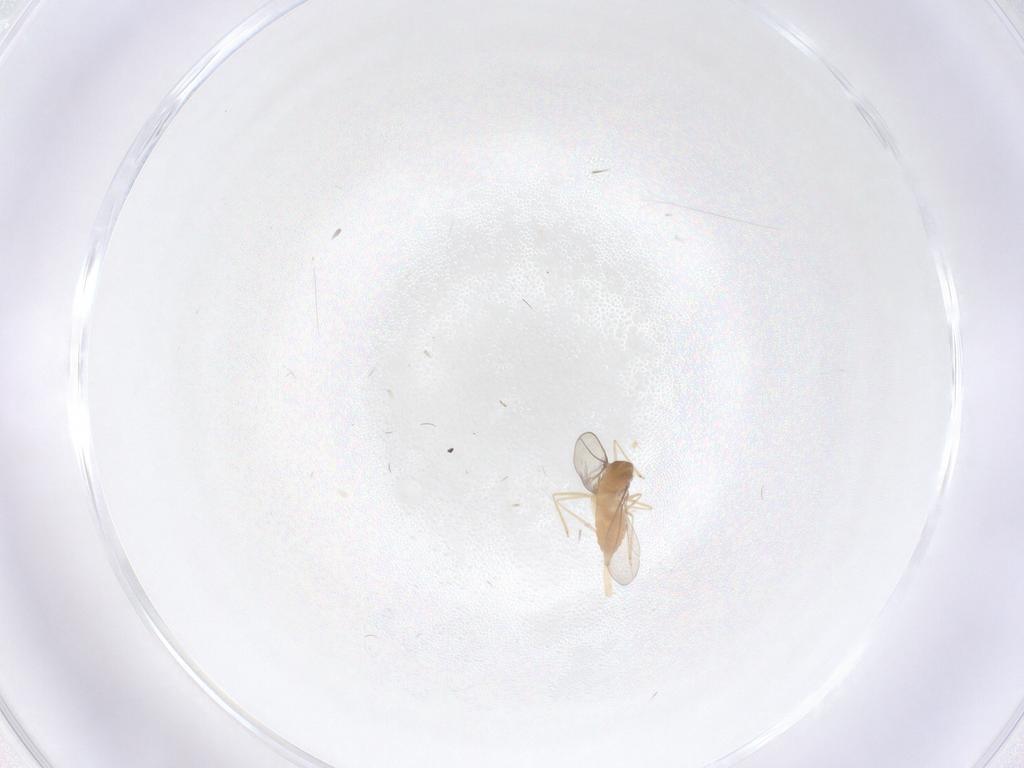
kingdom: Animalia
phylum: Arthropoda
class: Insecta
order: Diptera
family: Cecidomyiidae
